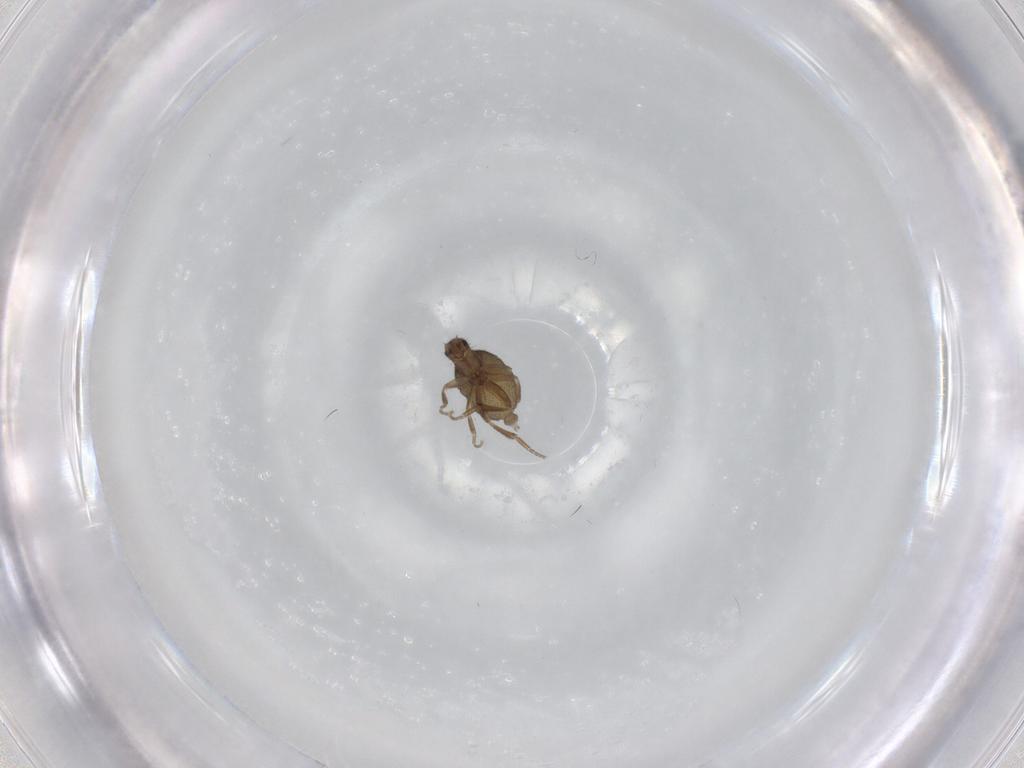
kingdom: Animalia
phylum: Arthropoda
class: Insecta
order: Diptera
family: Phoridae
